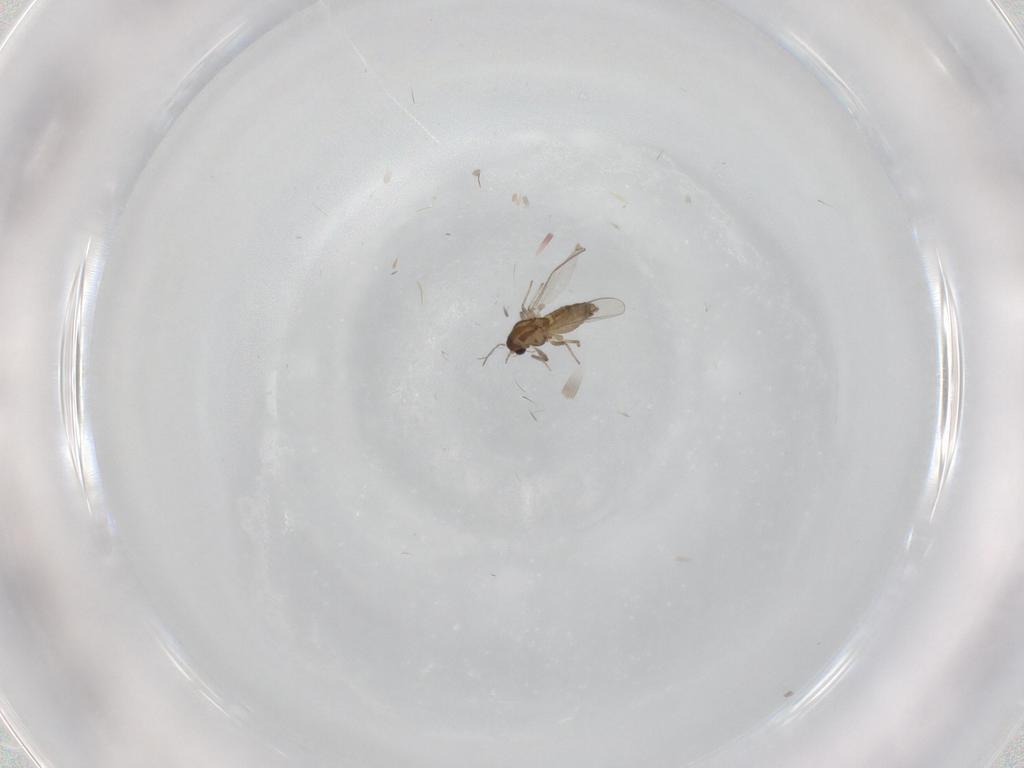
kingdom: Animalia
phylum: Arthropoda
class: Insecta
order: Diptera
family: Chironomidae
